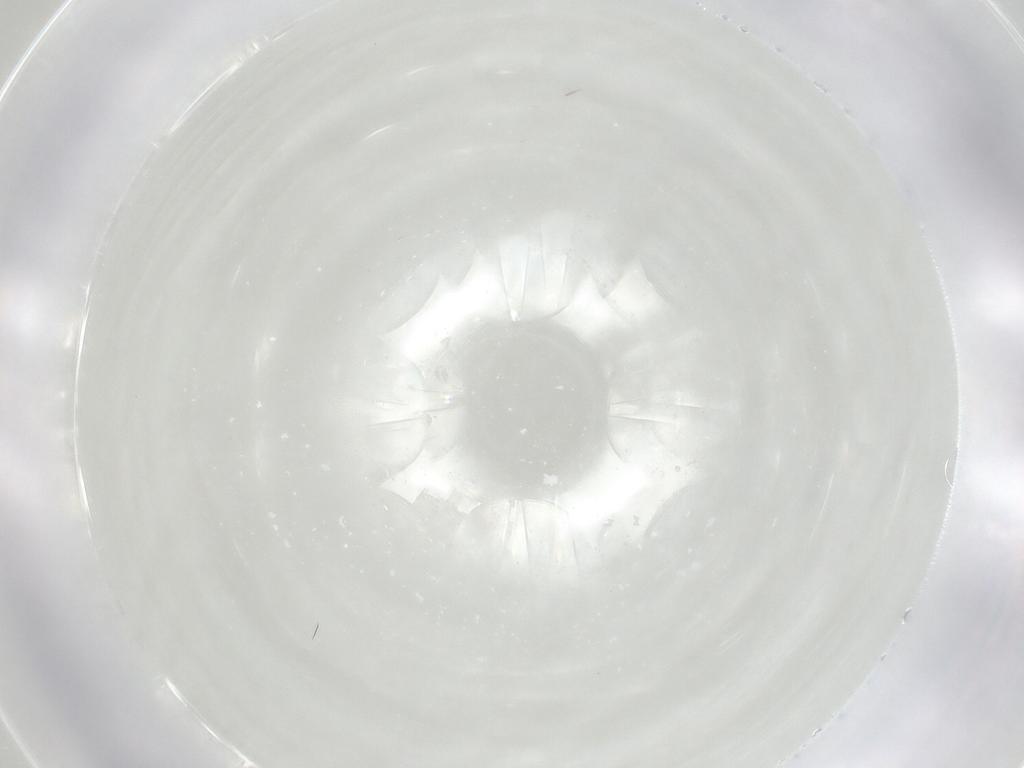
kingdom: Animalia
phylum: Arthropoda
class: Insecta
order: Diptera
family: Chironomidae
